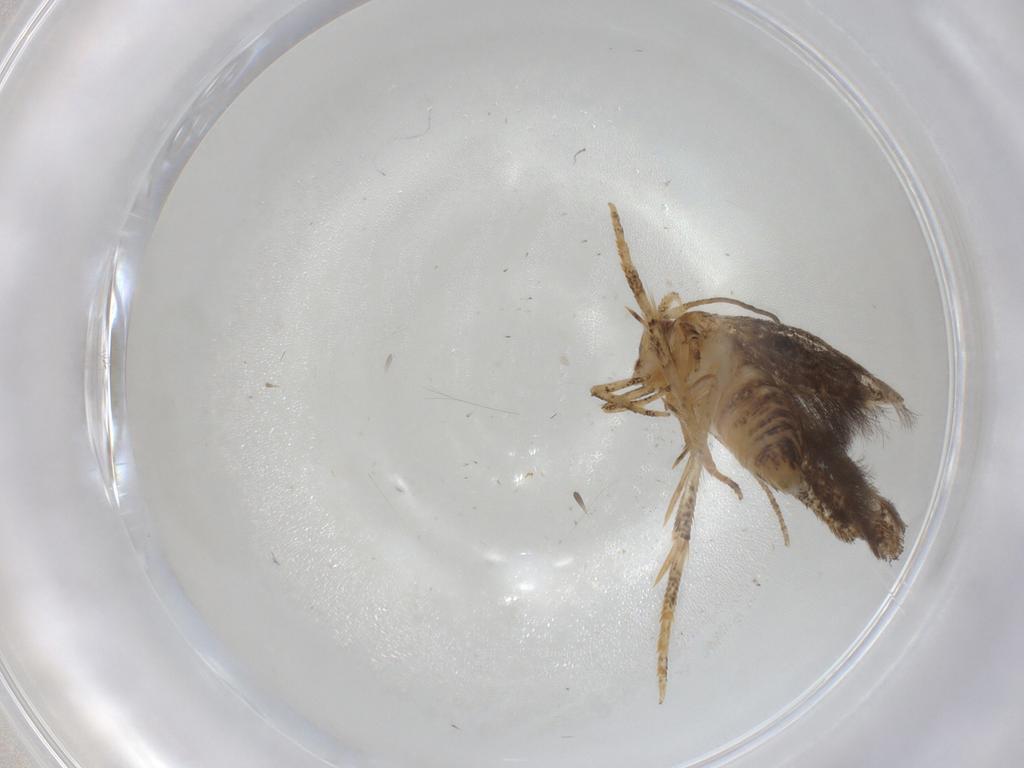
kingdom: Animalia
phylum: Arthropoda
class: Insecta
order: Lepidoptera
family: Tineidae
